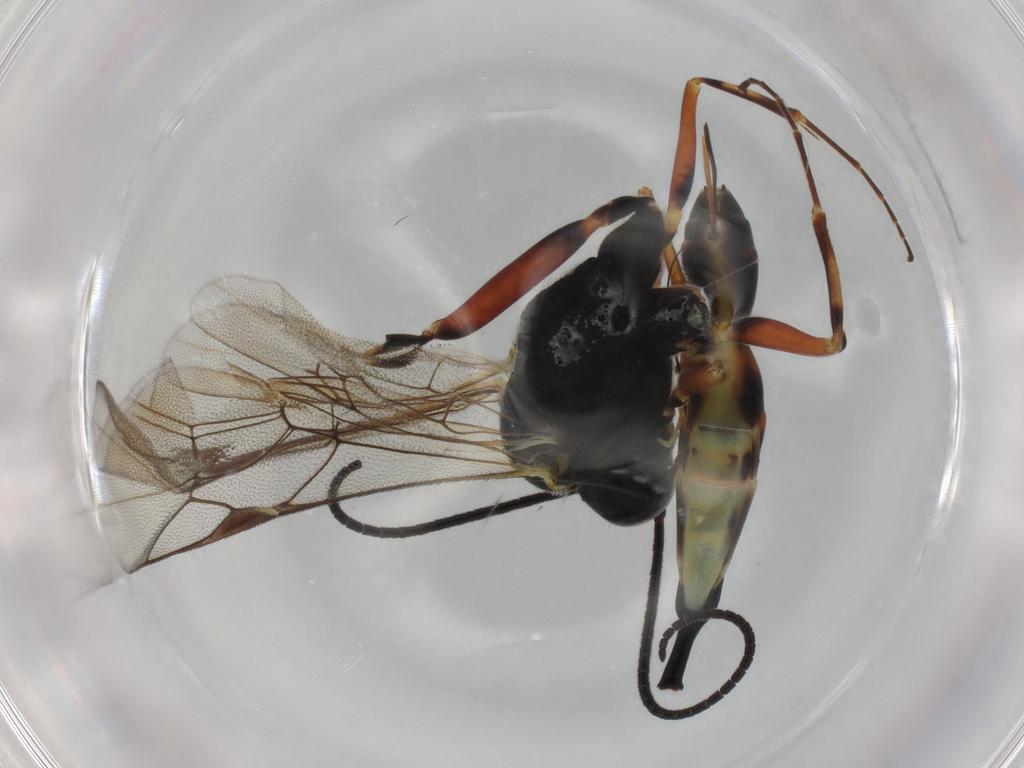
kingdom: Animalia
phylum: Arthropoda
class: Insecta
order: Hymenoptera
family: Ichneumonidae
